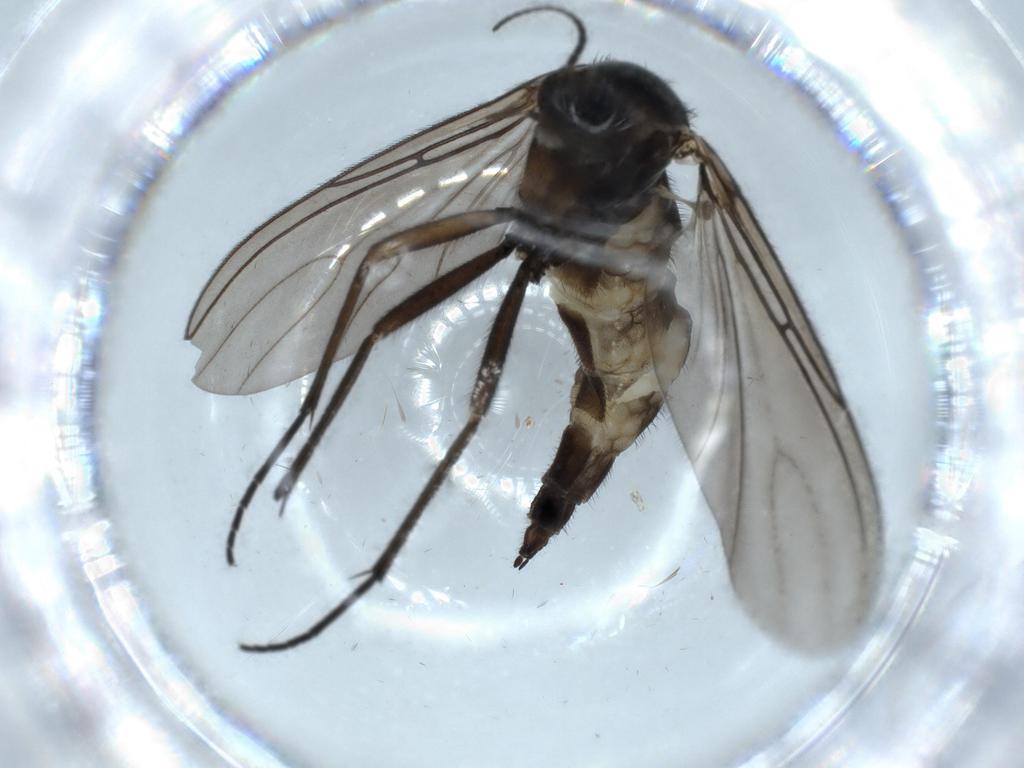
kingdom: Animalia
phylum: Arthropoda
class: Insecta
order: Diptera
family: Sciaridae
